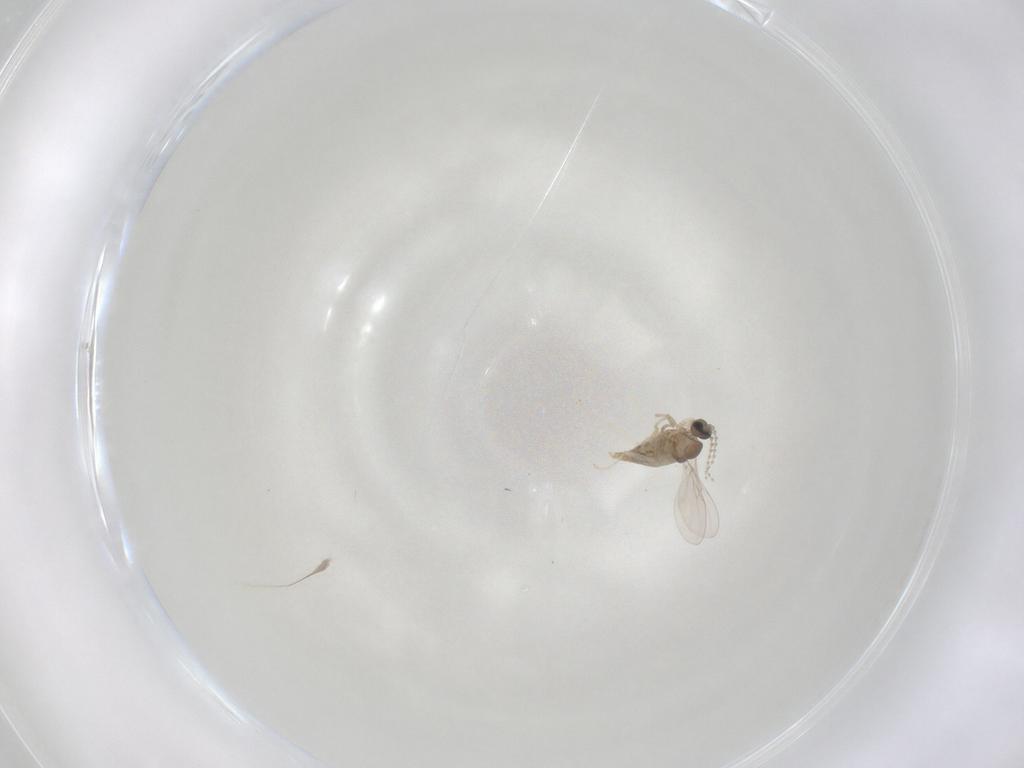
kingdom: Animalia
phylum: Arthropoda
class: Insecta
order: Diptera
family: Cecidomyiidae
